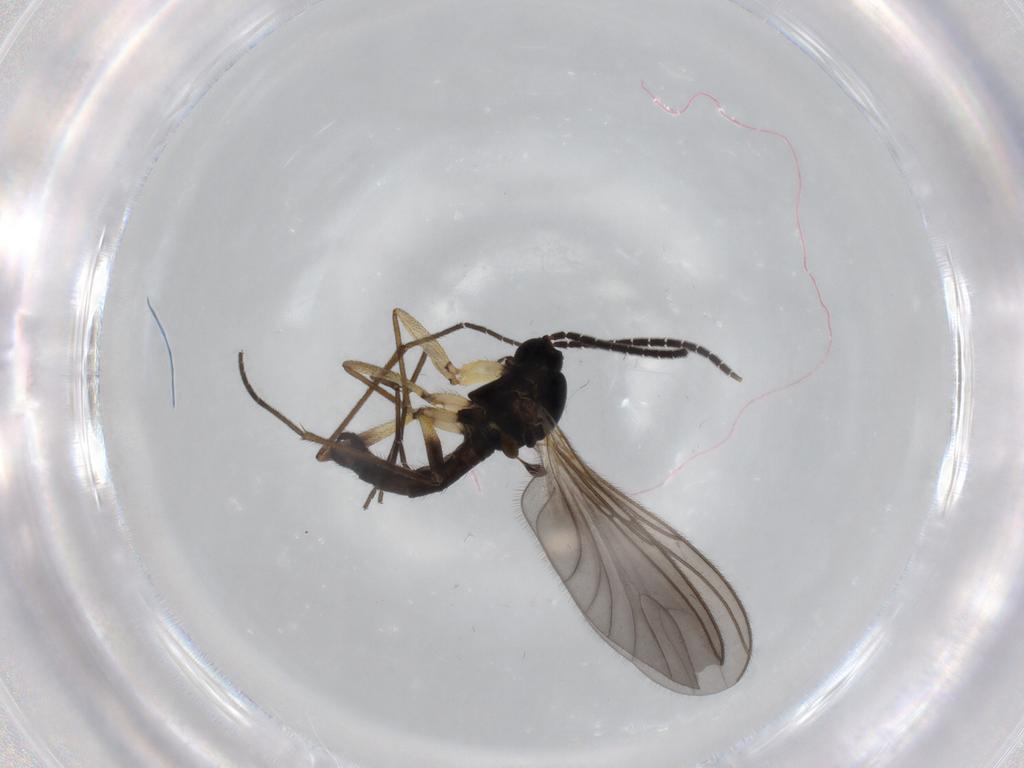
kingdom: Animalia
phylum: Arthropoda
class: Insecta
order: Diptera
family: Sciaridae
